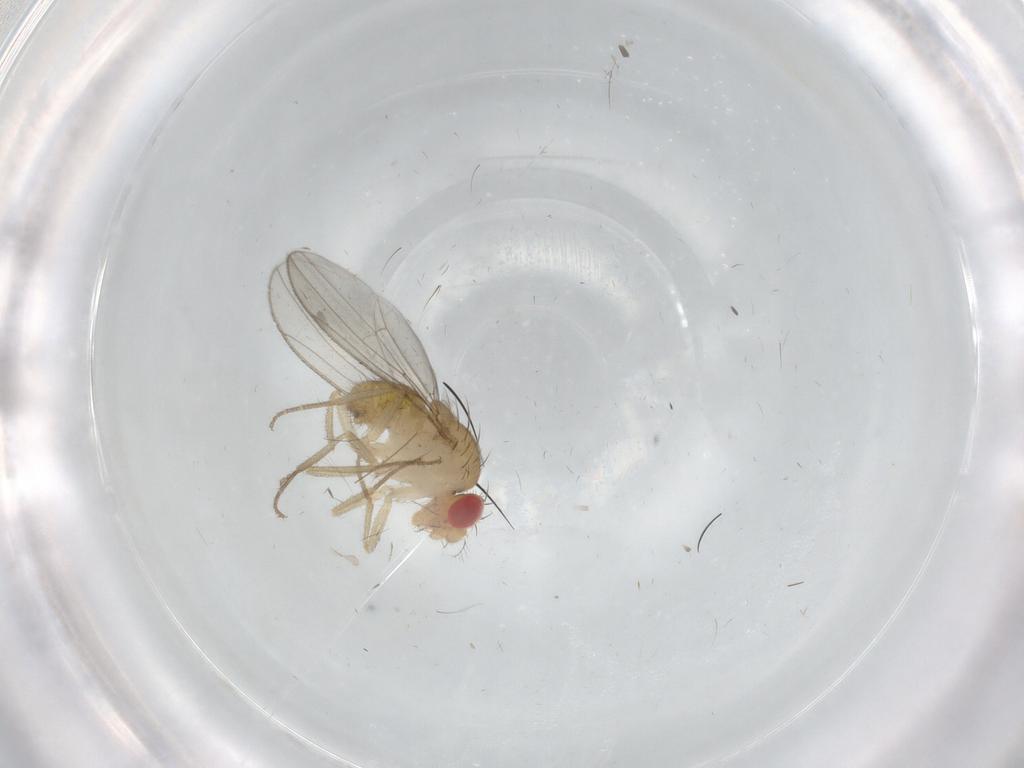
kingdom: Animalia
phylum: Arthropoda
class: Insecta
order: Diptera
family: Drosophilidae
